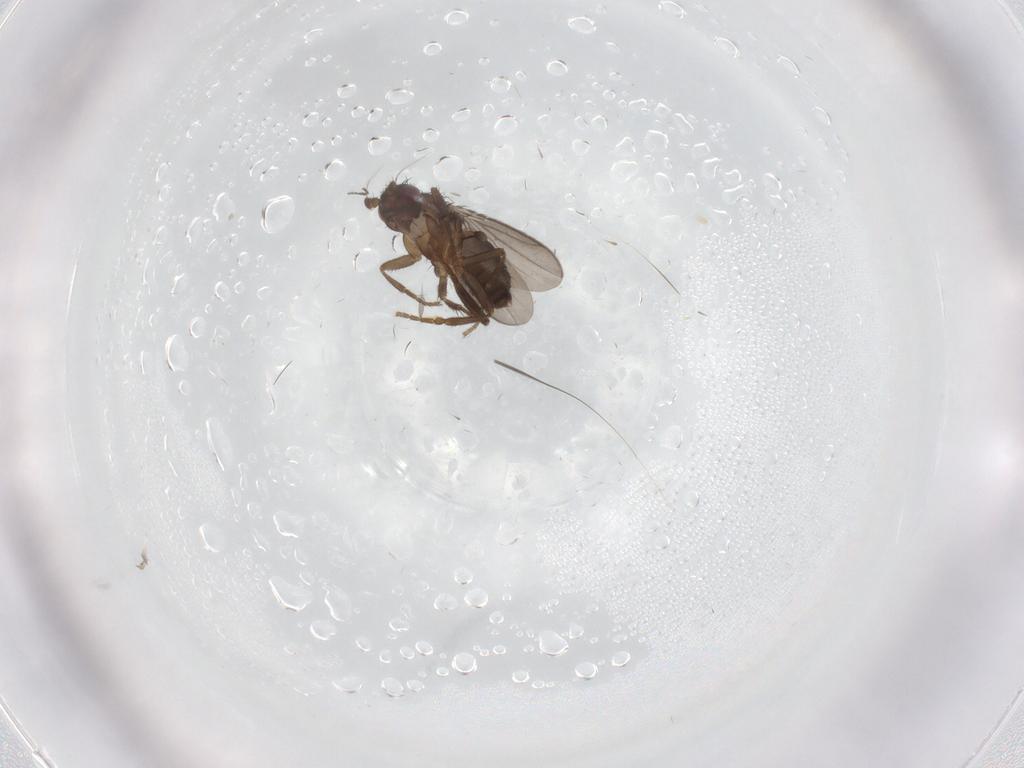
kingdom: Animalia
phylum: Arthropoda
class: Insecta
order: Diptera
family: Sphaeroceridae
